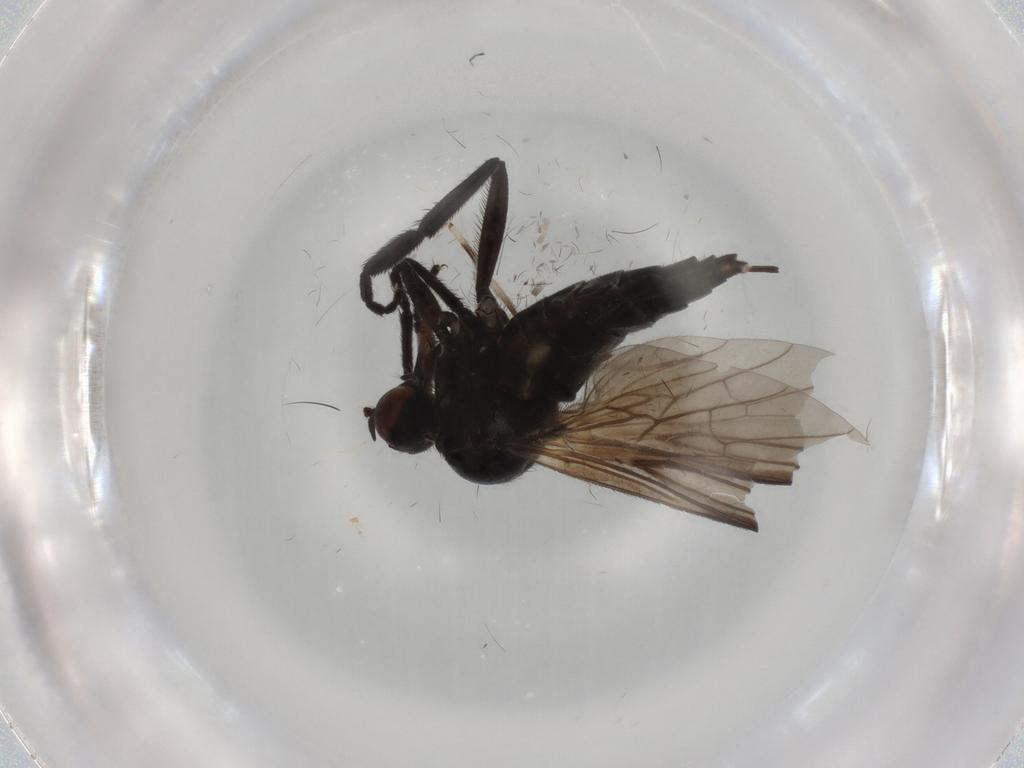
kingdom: Animalia
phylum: Arthropoda
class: Insecta
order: Diptera
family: Empididae
